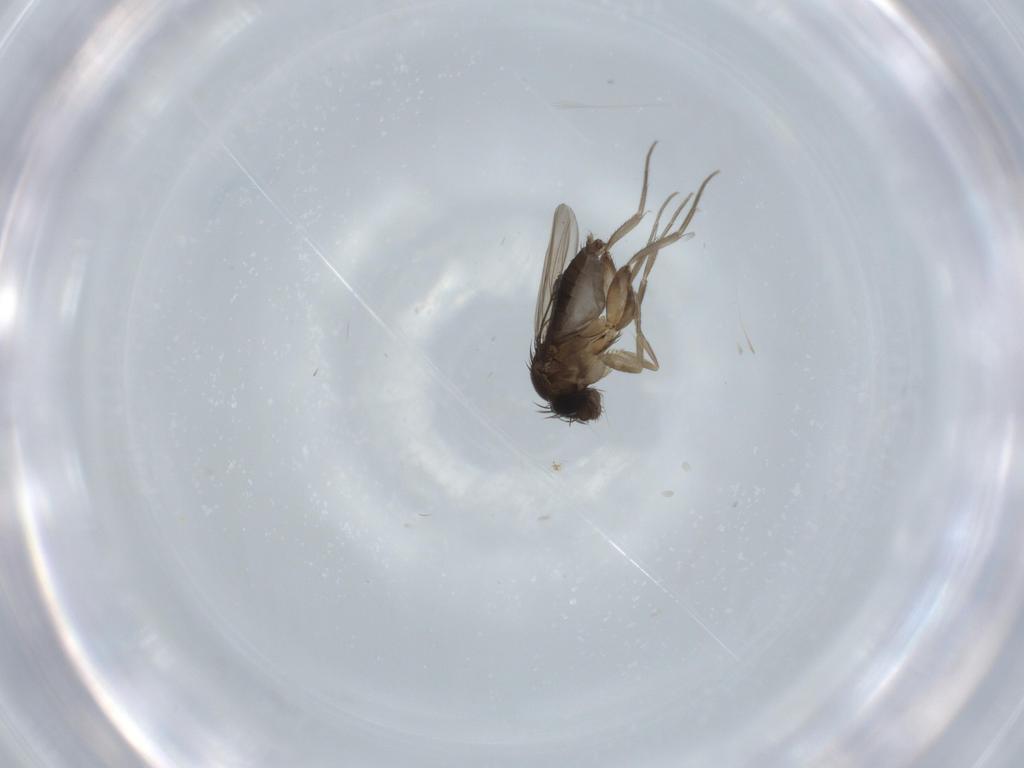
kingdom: Animalia
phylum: Arthropoda
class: Insecta
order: Diptera
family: Phoridae
